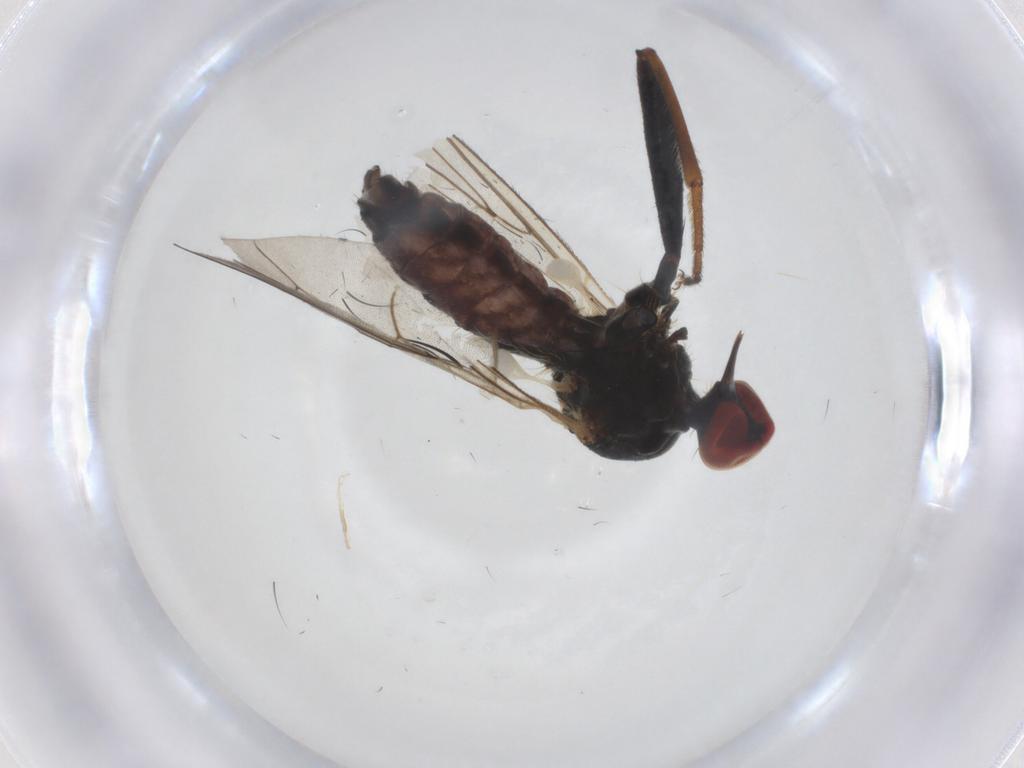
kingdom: Animalia
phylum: Arthropoda
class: Insecta
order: Diptera
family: Hybotidae
